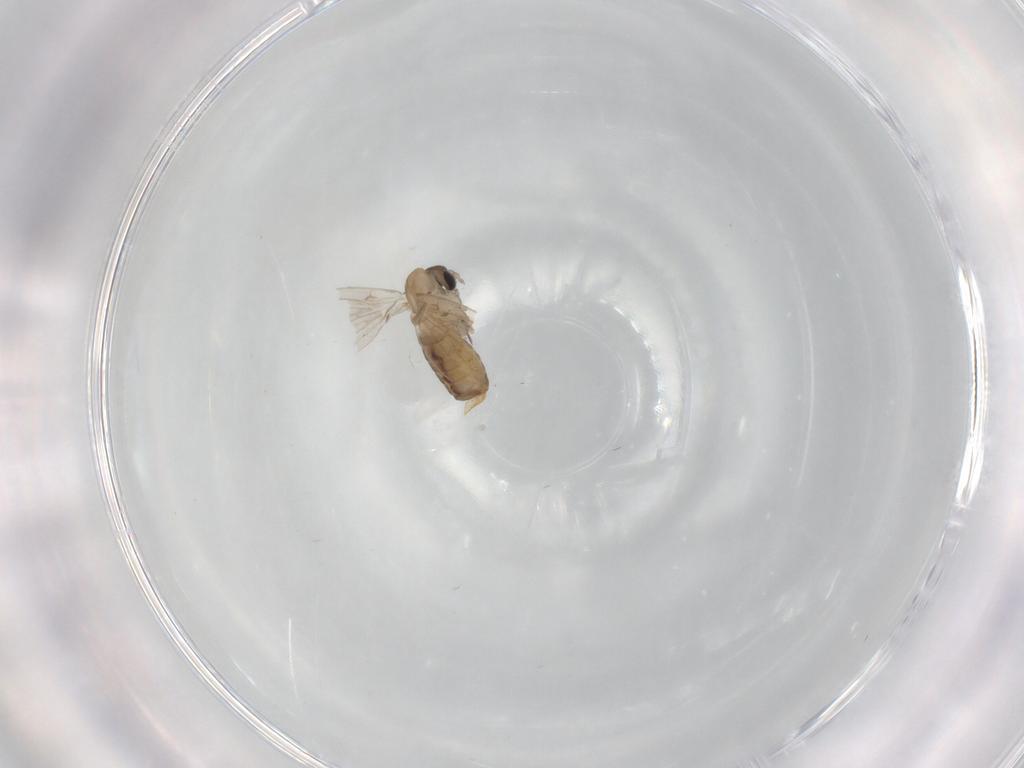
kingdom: Animalia
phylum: Arthropoda
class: Insecta
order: Diptera
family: Psychodidae
